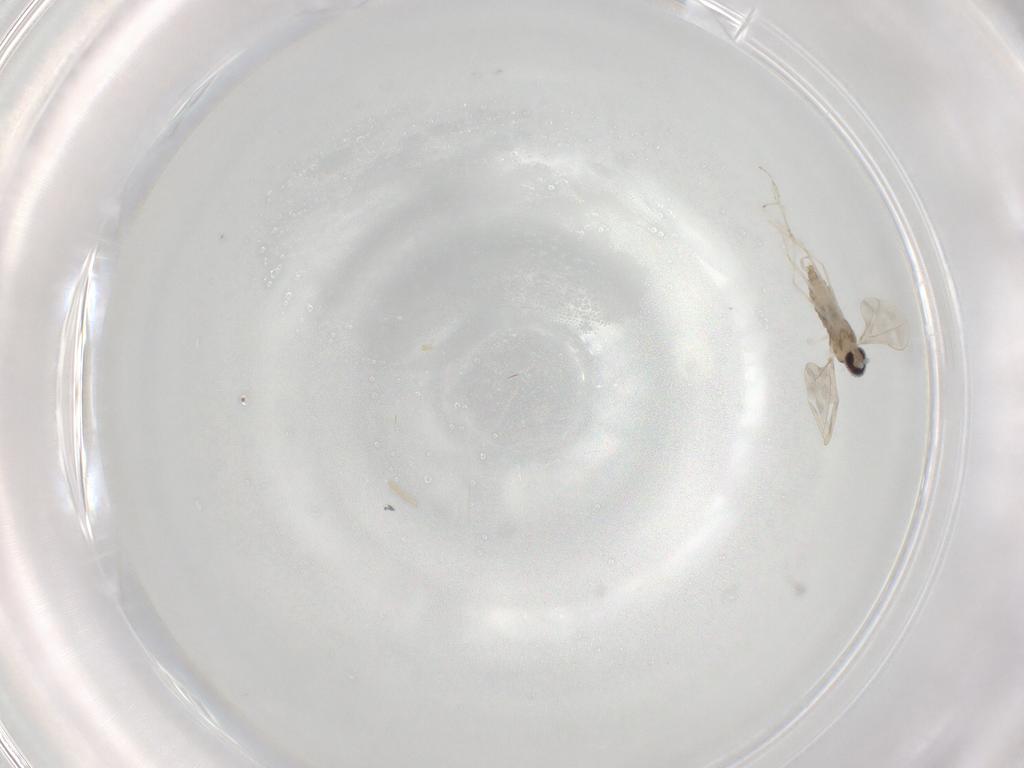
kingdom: Animalia
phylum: Arthropoda
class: Insecta
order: Diptera
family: Cecidomyiidae
